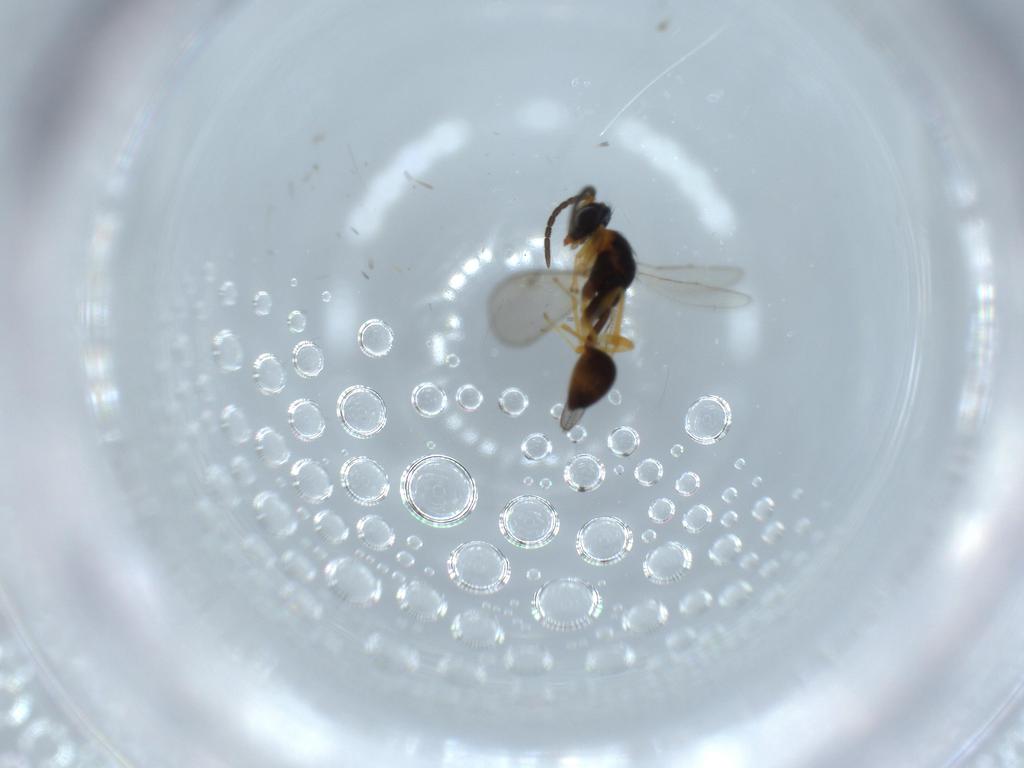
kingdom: Animalia
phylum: Arthropoda
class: Insecta
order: Hymenoptera
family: Diparidae
